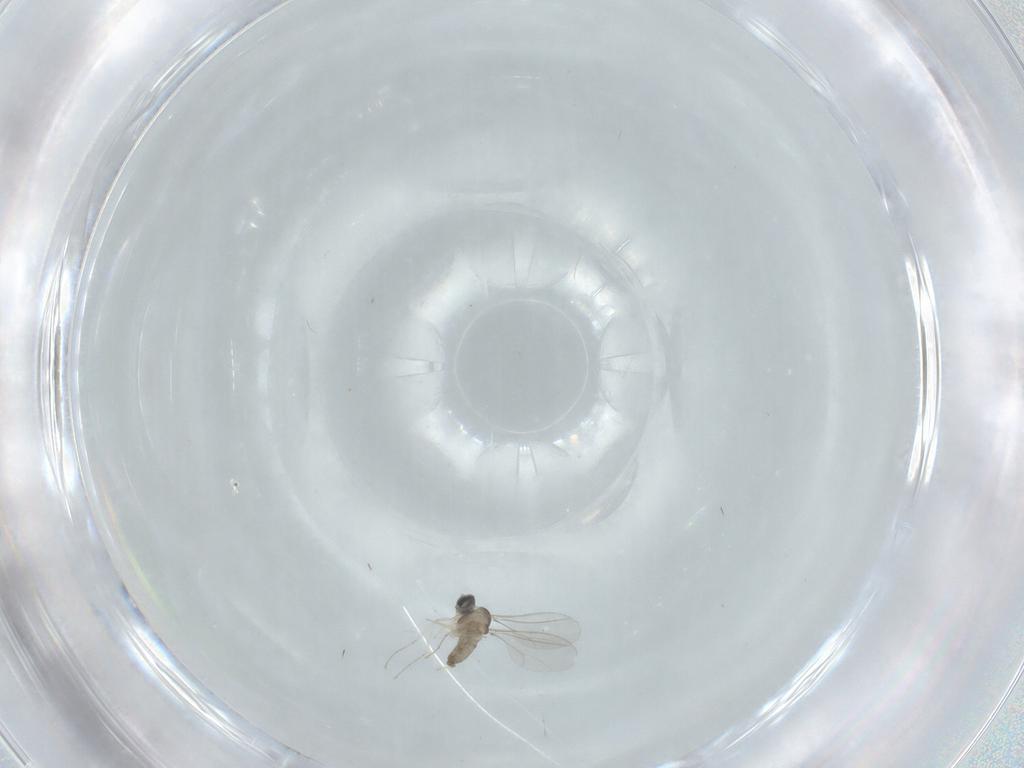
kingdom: Animalia
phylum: Arthropoda
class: Insecta
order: Diptera
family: Cecidomyiidae
